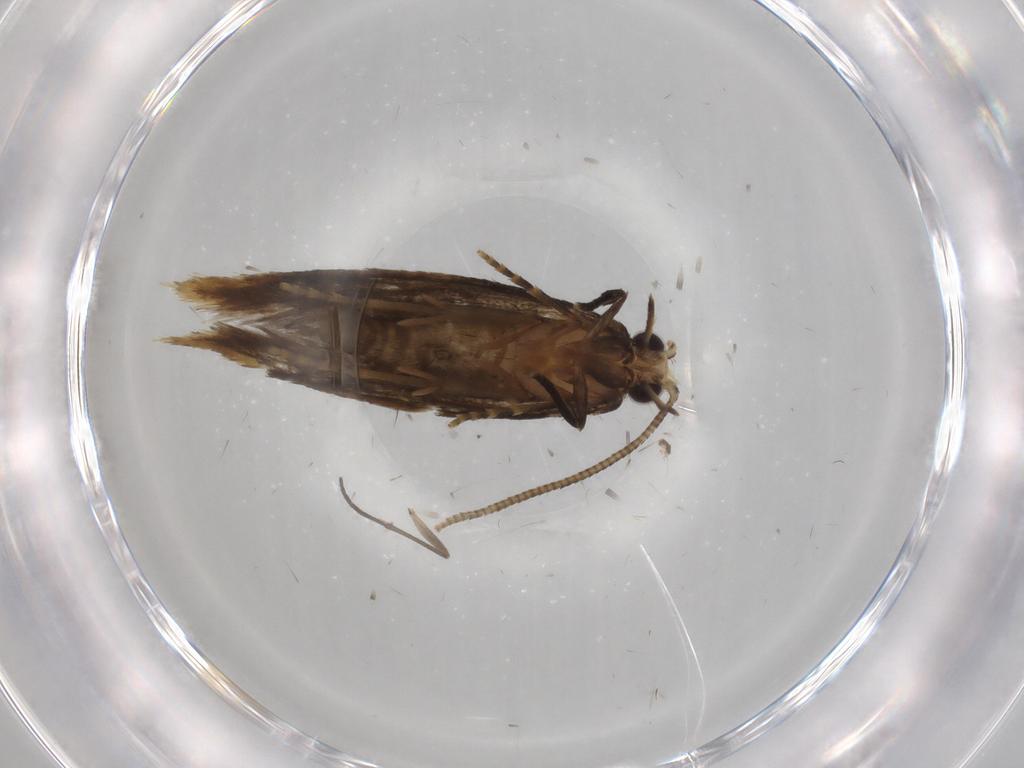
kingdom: Animalia
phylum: Arthropoda
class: Insecta
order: Lepidoptera
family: Tineidae
